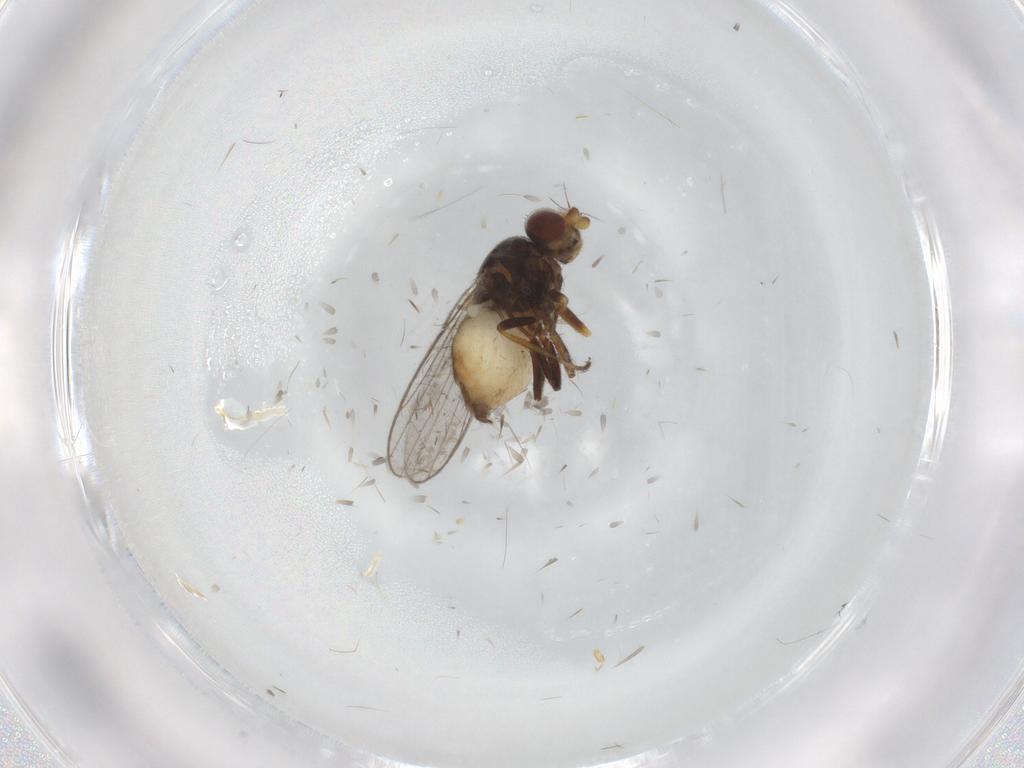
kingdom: Animalia
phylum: Arthropoda
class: Insecta
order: Diptera
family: Chloropidae
